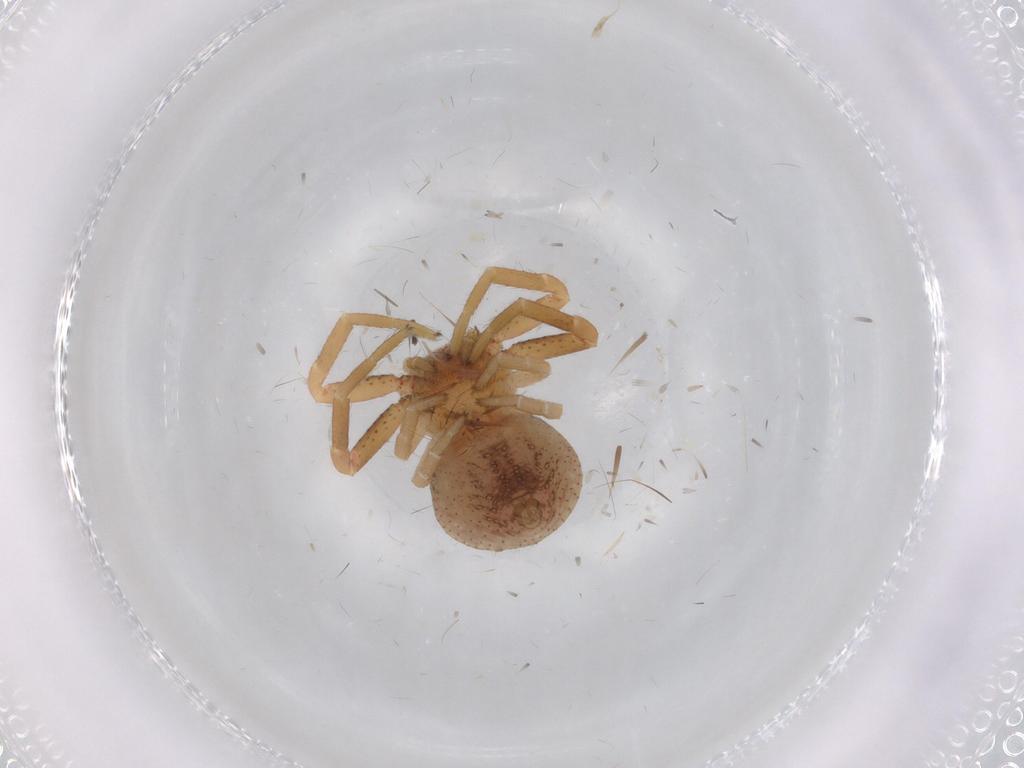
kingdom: Animalia
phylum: Arthropoda
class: Arachnida
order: Araneae
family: Thomisidae
